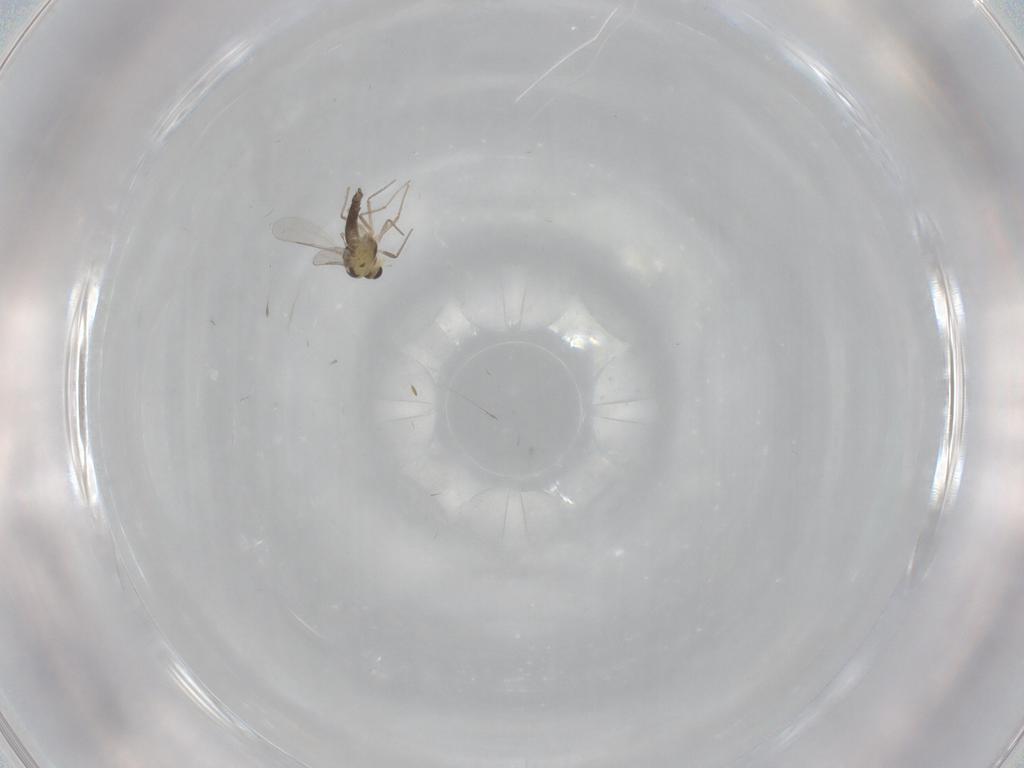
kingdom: Animalia
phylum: Arthropoda
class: Insecta
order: Diptera
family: Chironomidae
